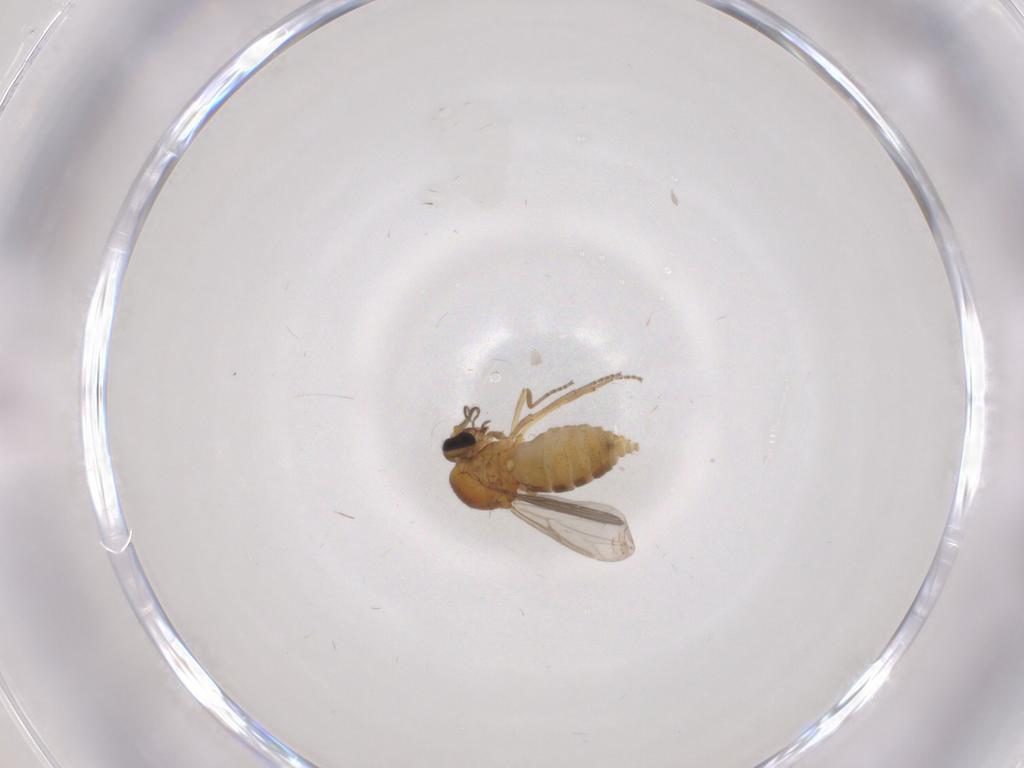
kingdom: Animalia
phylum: Arthropoda
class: Insecta
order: Diptera
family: Ceratopogonidae
